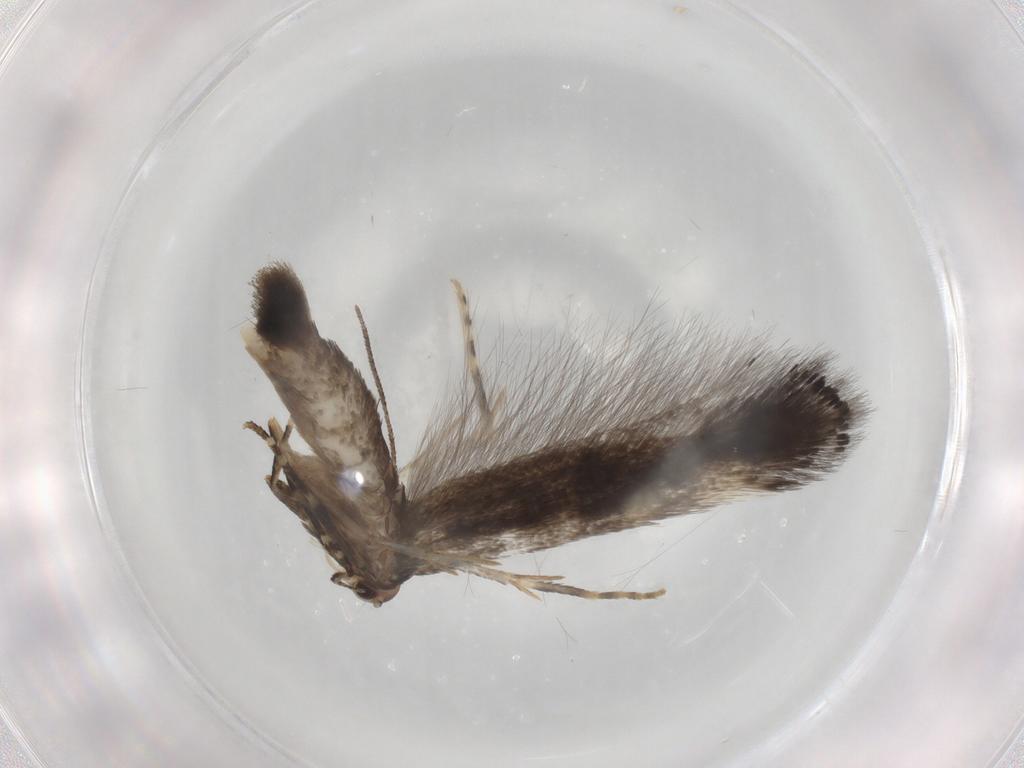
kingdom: Animalia
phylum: Arthropoda
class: Insecta
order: Lepidoptera
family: Elachistidae
